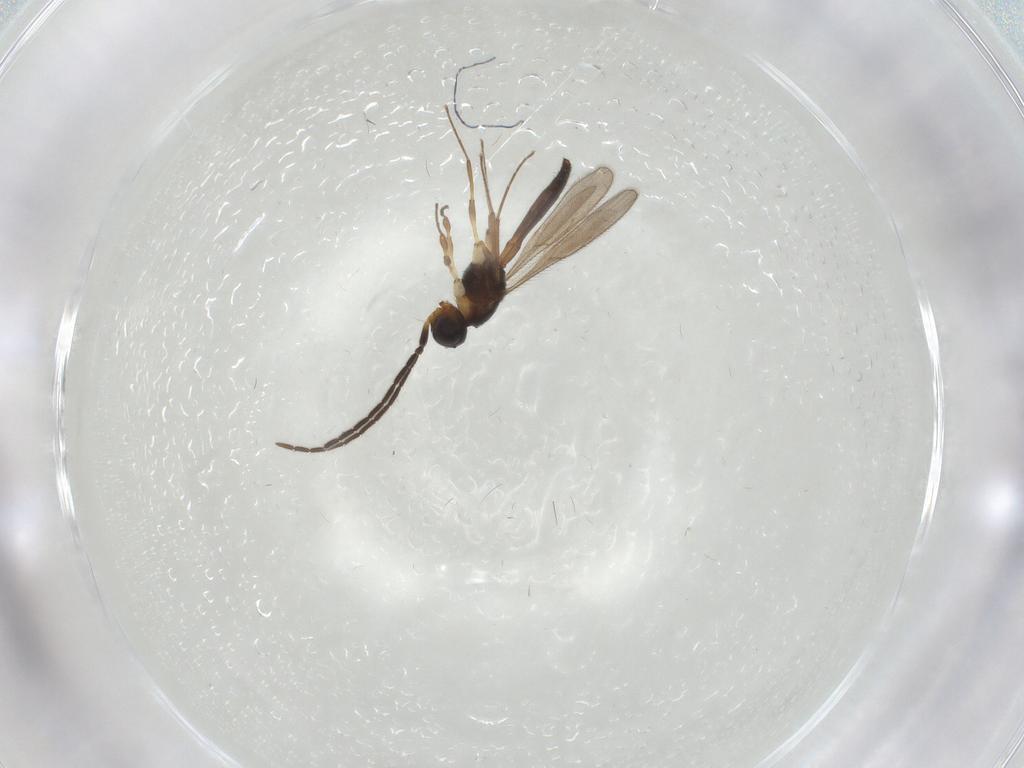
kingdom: Animalia
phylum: Arthropoda
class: Insecta
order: Hymenoptera
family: Scelionidae
